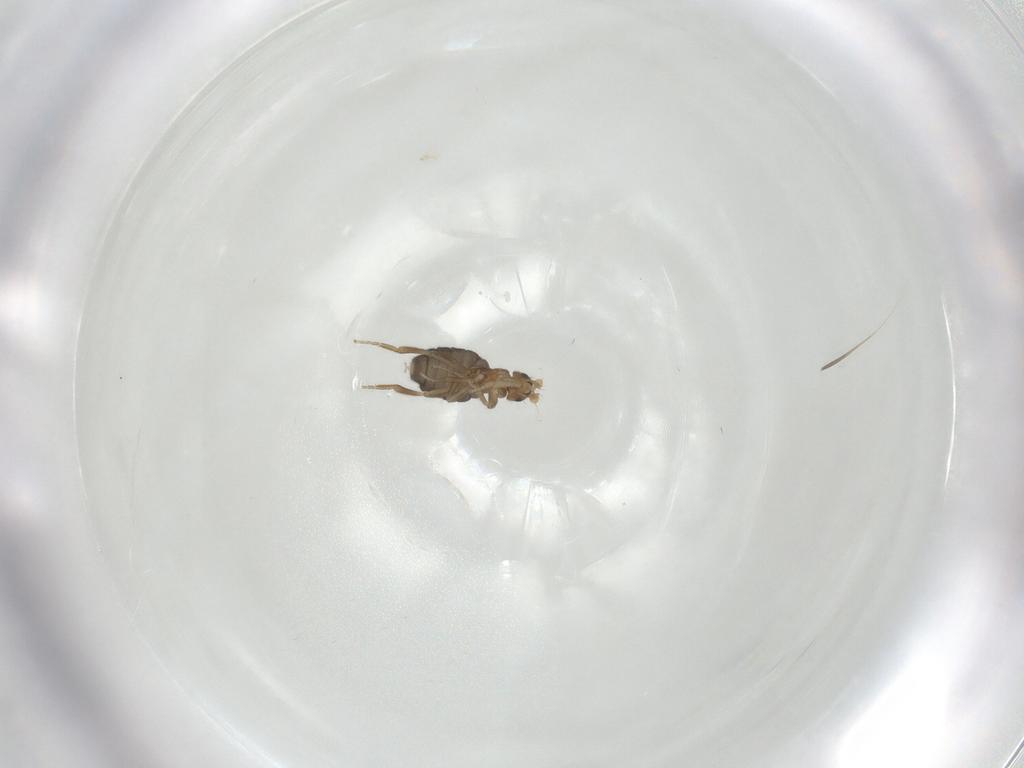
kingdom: Animalia
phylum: Arthropoda
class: Insecta
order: Diptera
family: Phoridae
